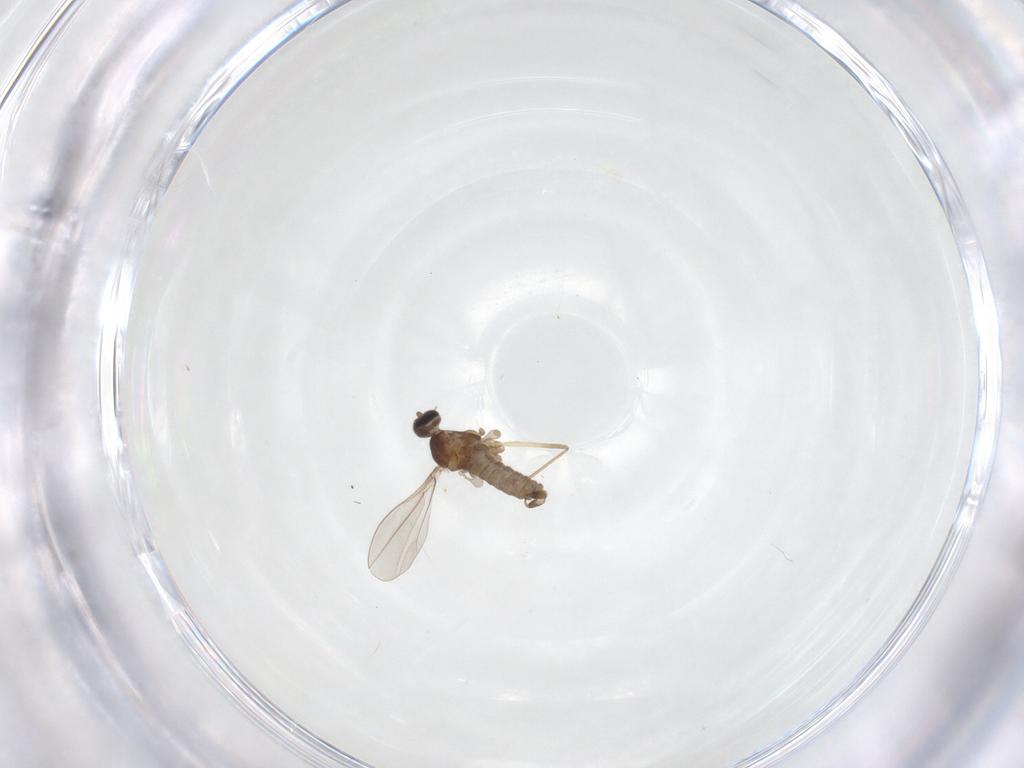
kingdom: Animalia
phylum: Arthropoda
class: Insecta
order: Diptera
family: Cecidomyiidae
